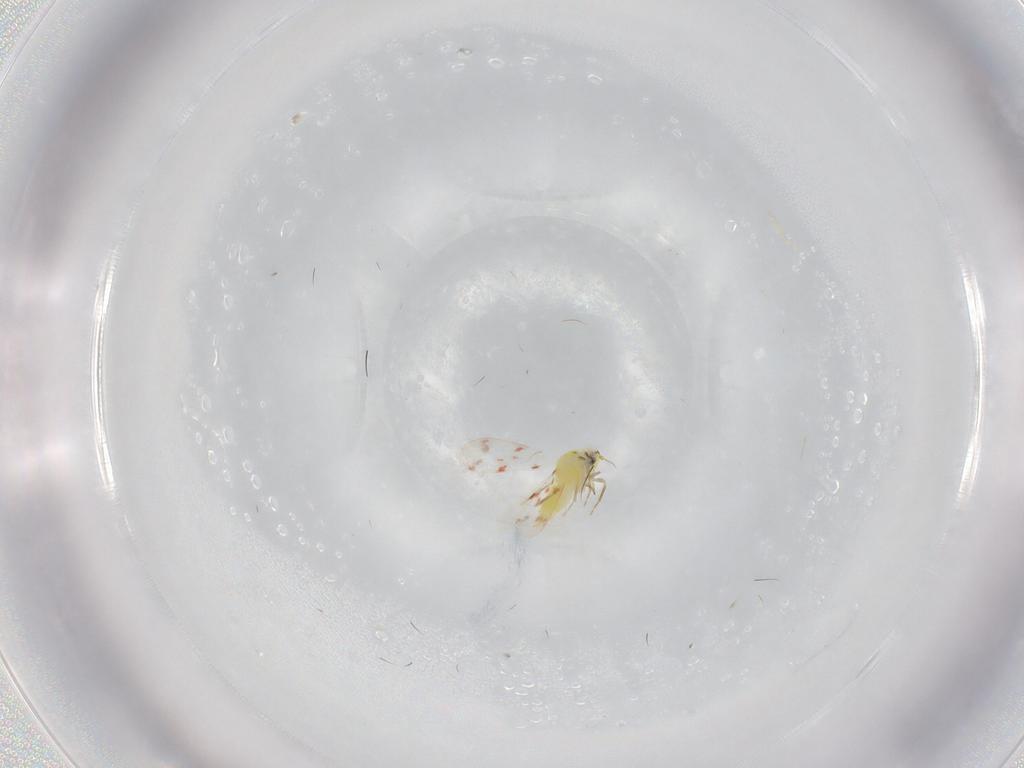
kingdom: Animalia
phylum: Arthropoda
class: Insecta
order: Hemiptera
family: Aleyrodidae
